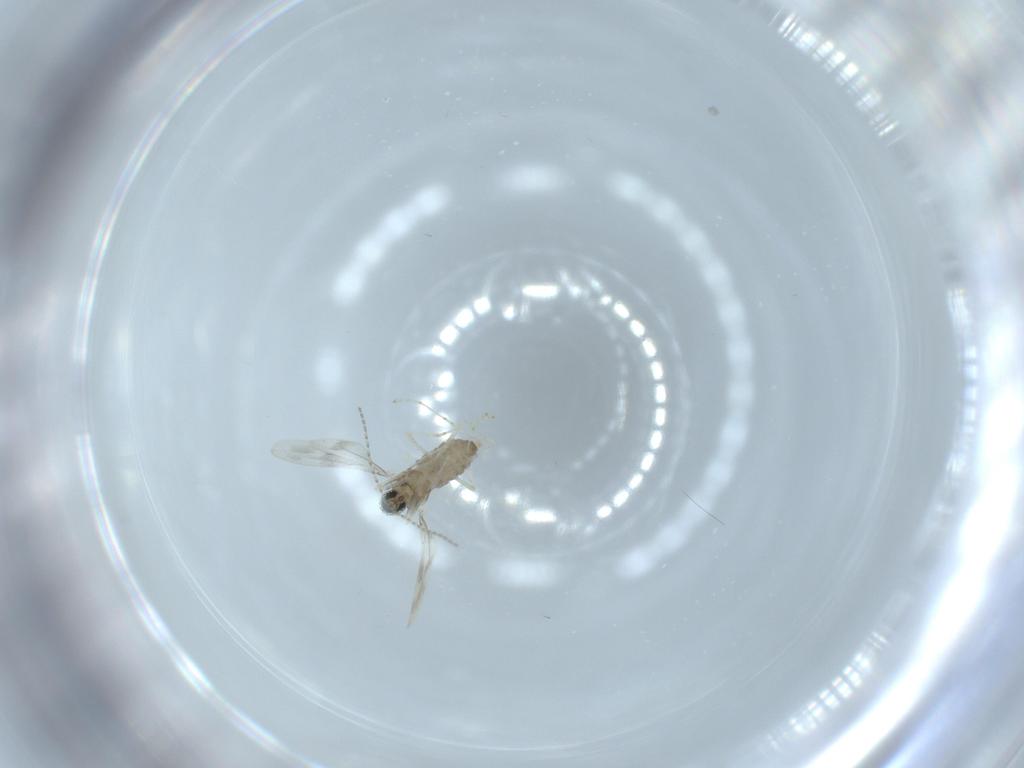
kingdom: Animalia
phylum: Arthropoda
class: Insecta
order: Diptera
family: Cecidomyiidae
